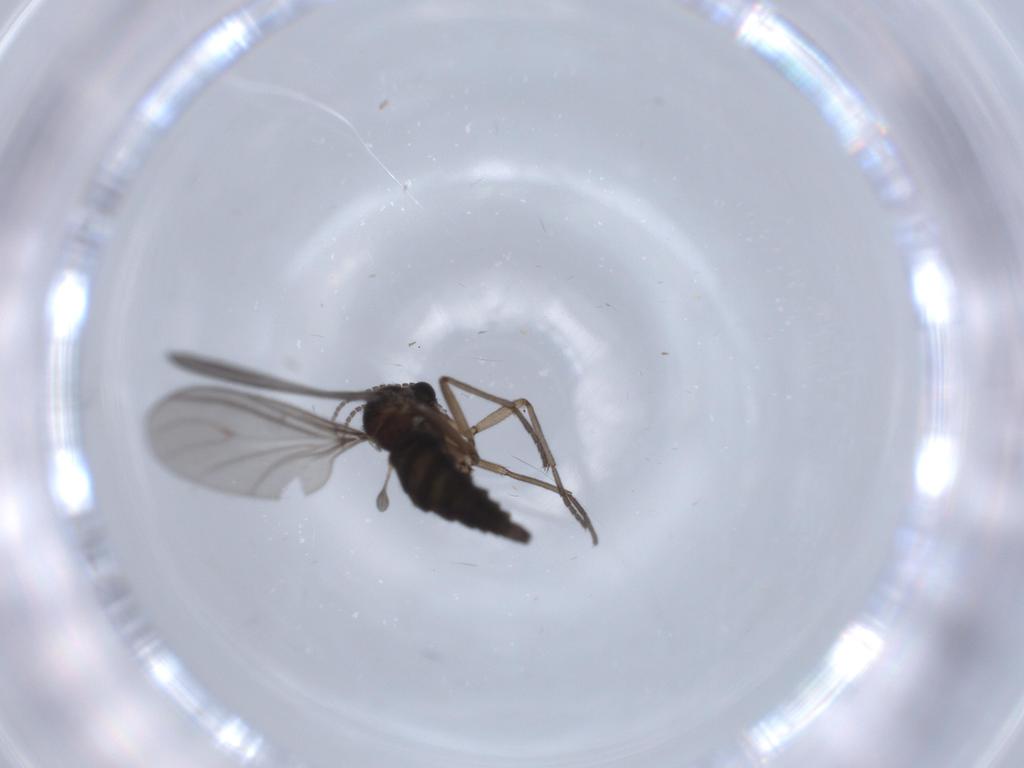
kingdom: Animalia
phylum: Arthropoda
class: Insecta
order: Diptera
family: Sciaridae
